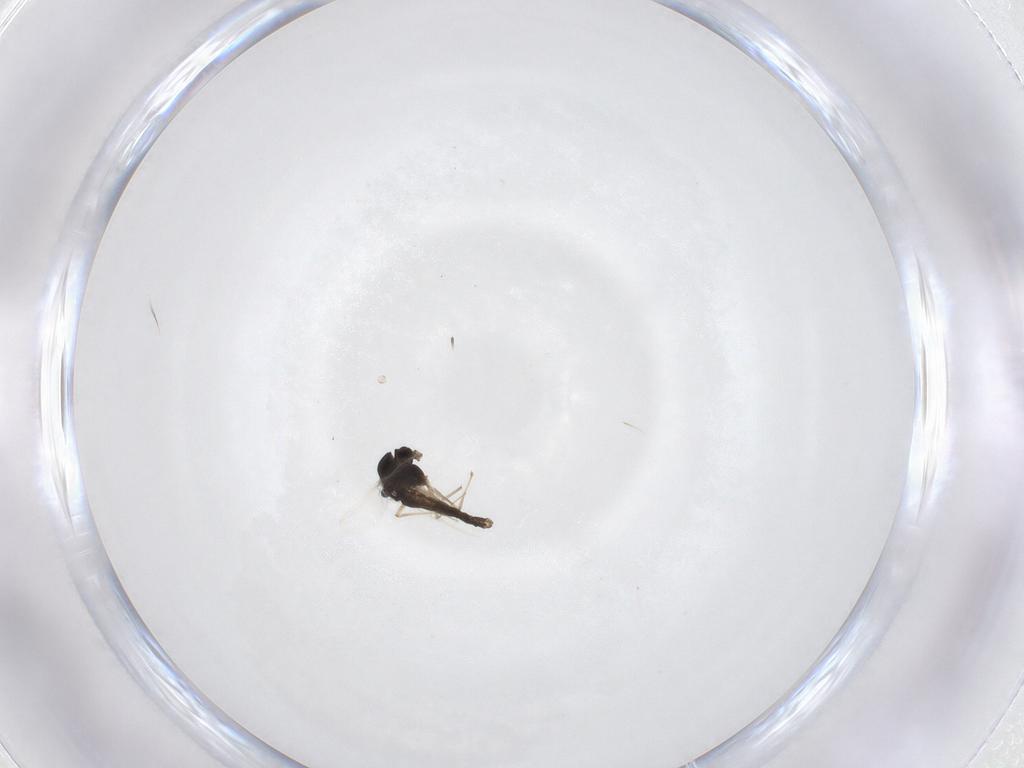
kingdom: Animalia
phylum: Arthropoda
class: Insecta
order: Diptera
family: Chironomidae
